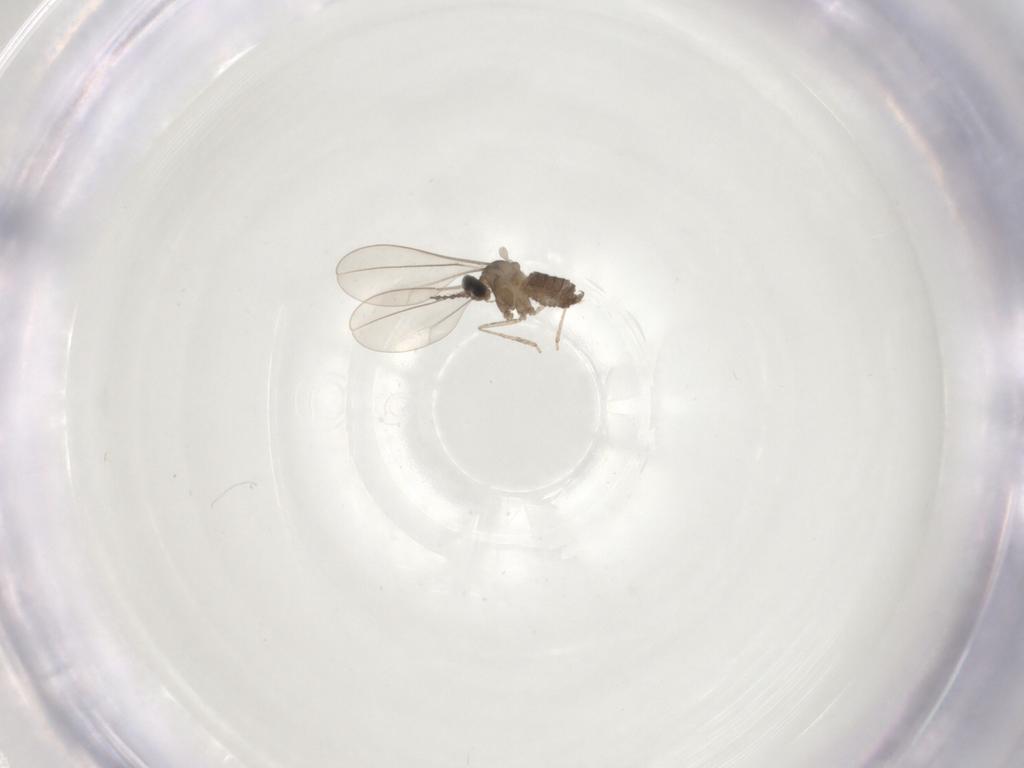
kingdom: Animalia
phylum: Arthropoda
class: Insecta
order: Diptera
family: Cecidomyiidae
